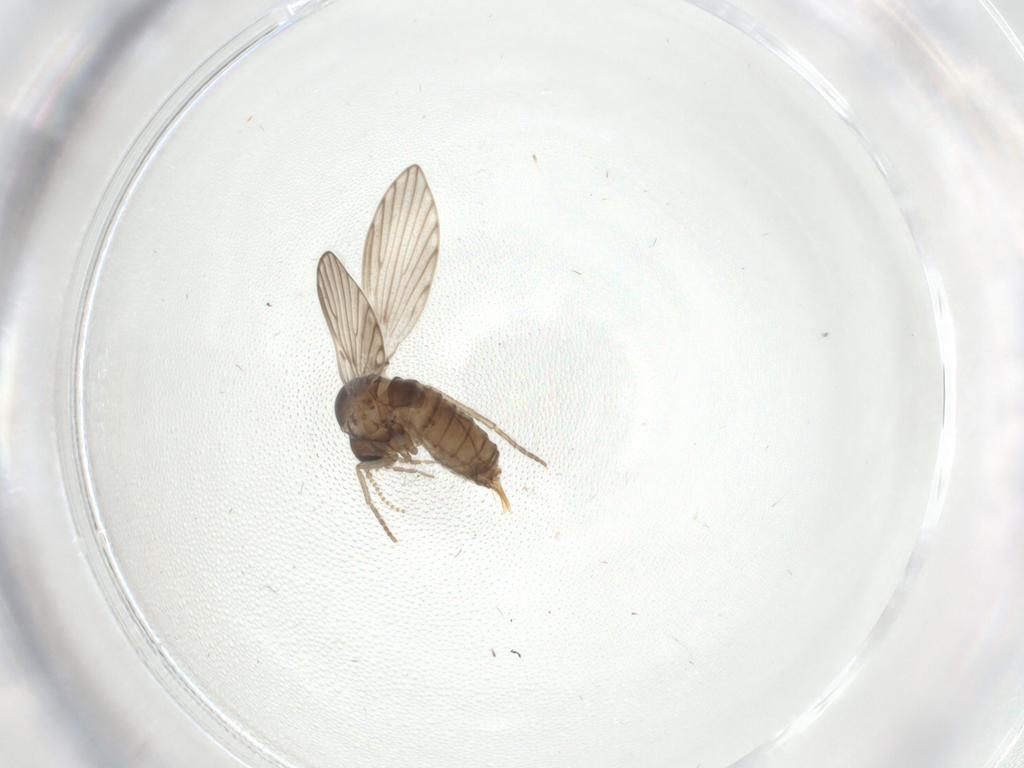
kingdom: Animalia
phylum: Arthropoda
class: Insecta
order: Diptera
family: Psychodidae
